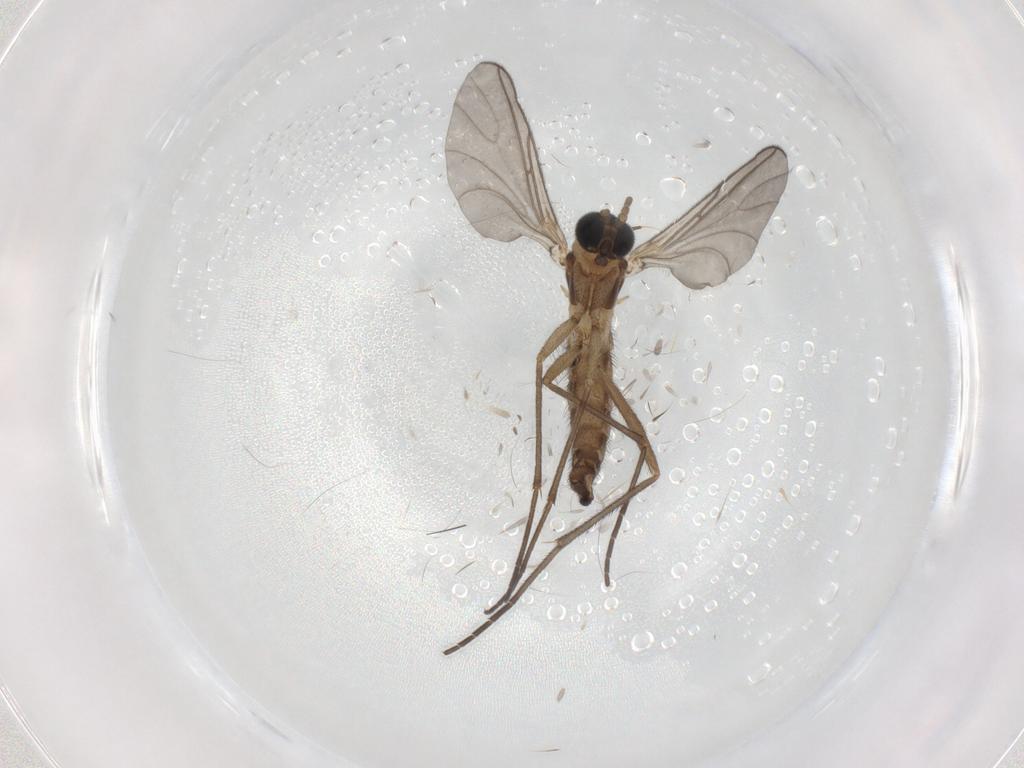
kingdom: Animalia
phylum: Arthropoda
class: Insecta
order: Diptera
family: Sciaridae
